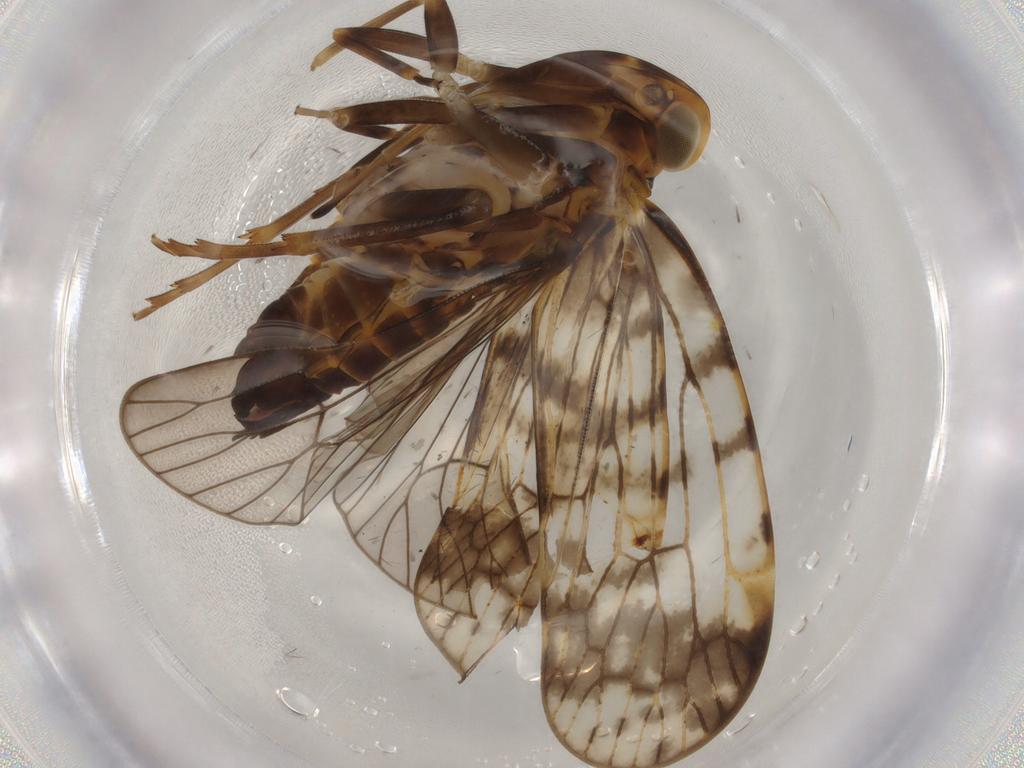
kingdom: Animalia
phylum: Arthropoda
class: Insecta
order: Hemiptera
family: Cixiidae
